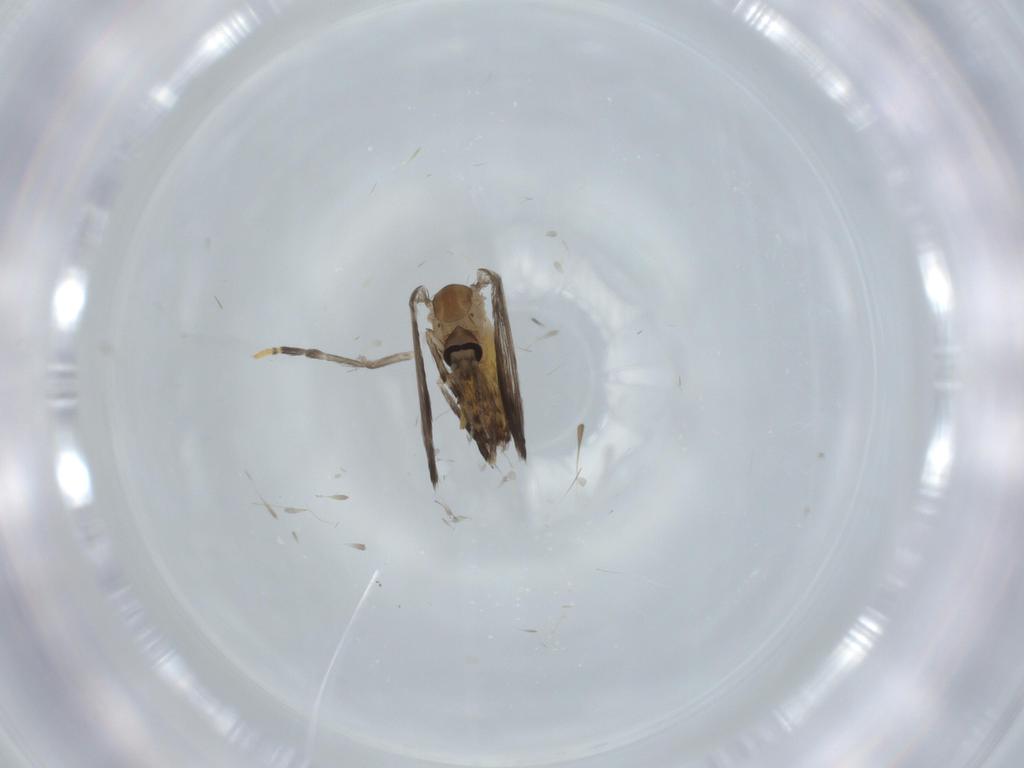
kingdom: Animalia
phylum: Arthropoda
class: Insecta
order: Diptera
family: Psychodidae
